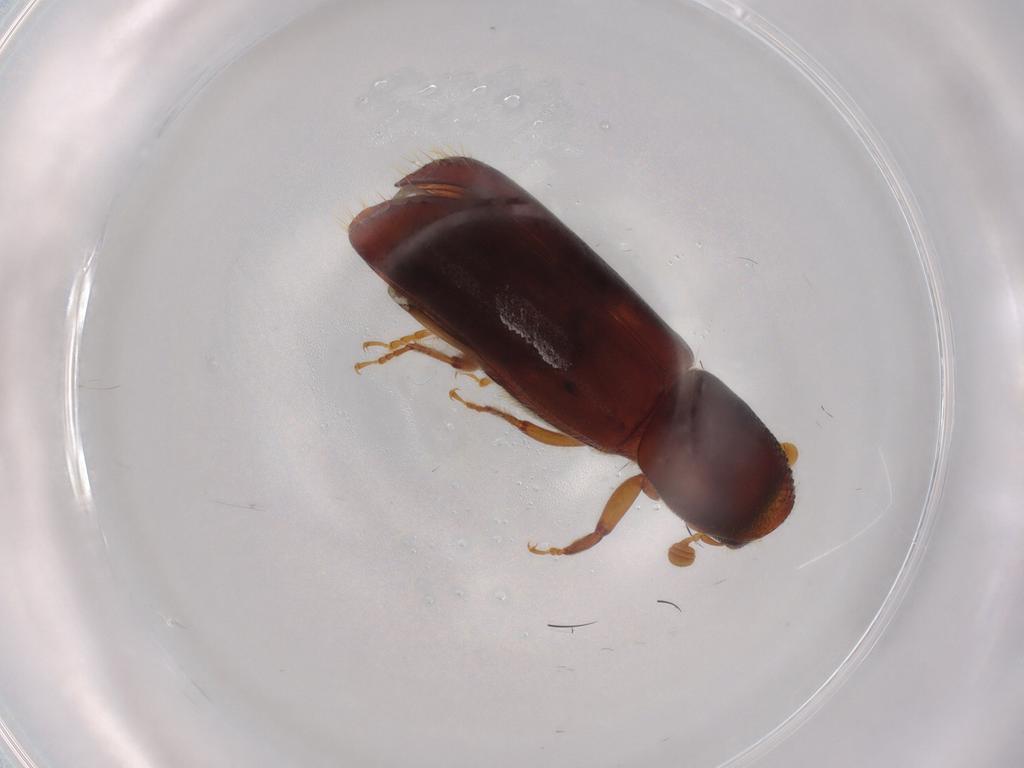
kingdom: Animalia
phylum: Arthropoda
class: Insecta
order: Coleoptera
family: Curculionidae
